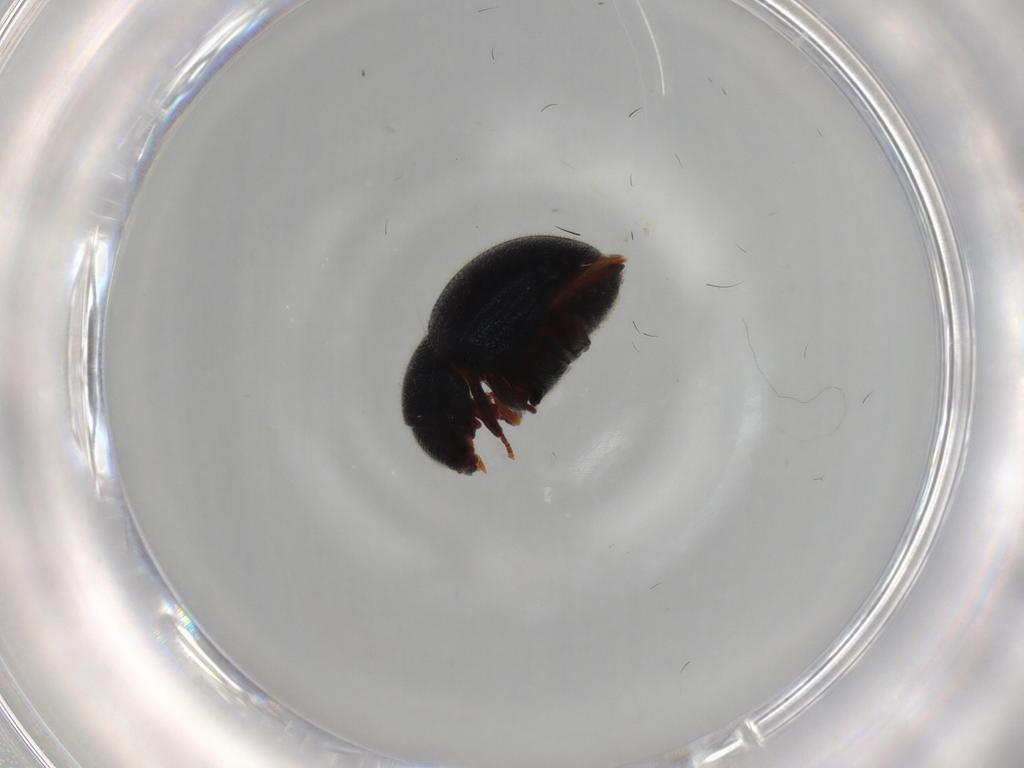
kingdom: Animalia
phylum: Arthropoda
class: Insecta
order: Coleoptera
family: Ptinidae
